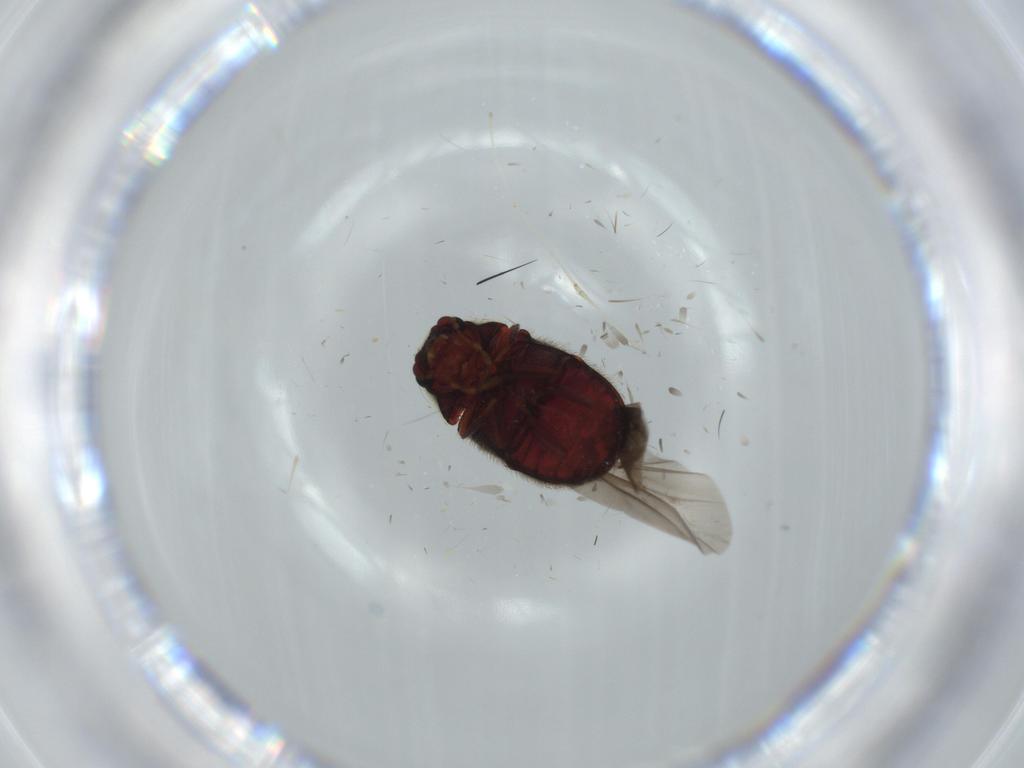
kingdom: Animalia
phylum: Arthropoda
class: Insecta
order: Coleoptera
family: Ptinidae
